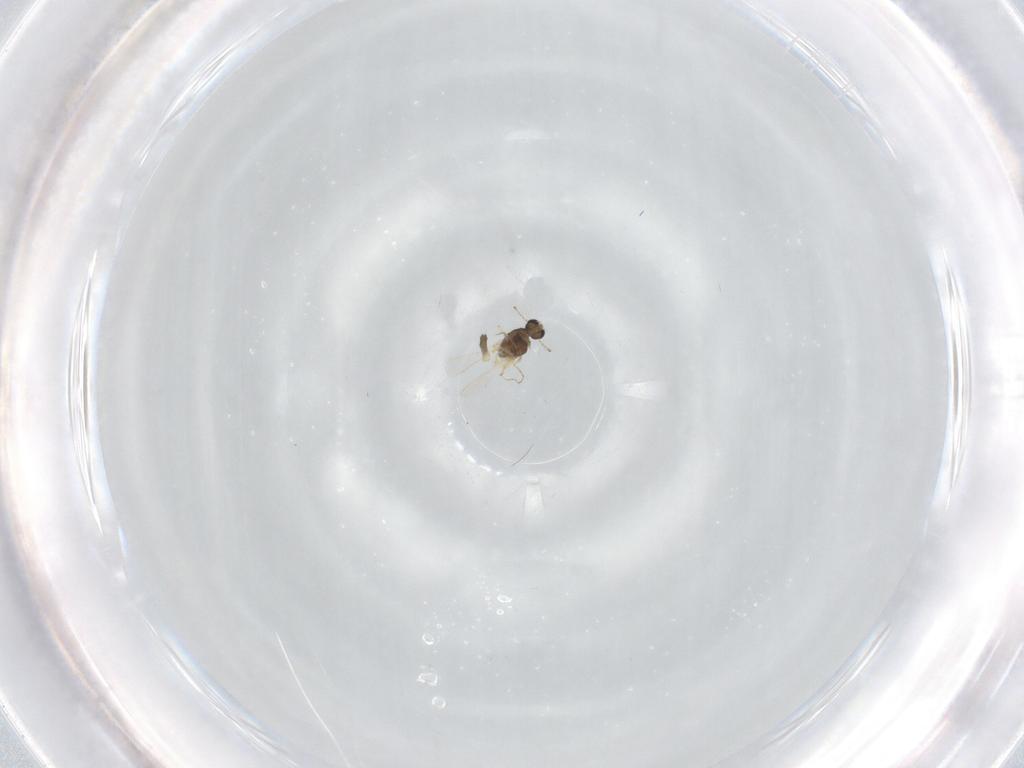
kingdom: Animalia
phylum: Arthropoda
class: Insecta
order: Diptera
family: Chironomidae
